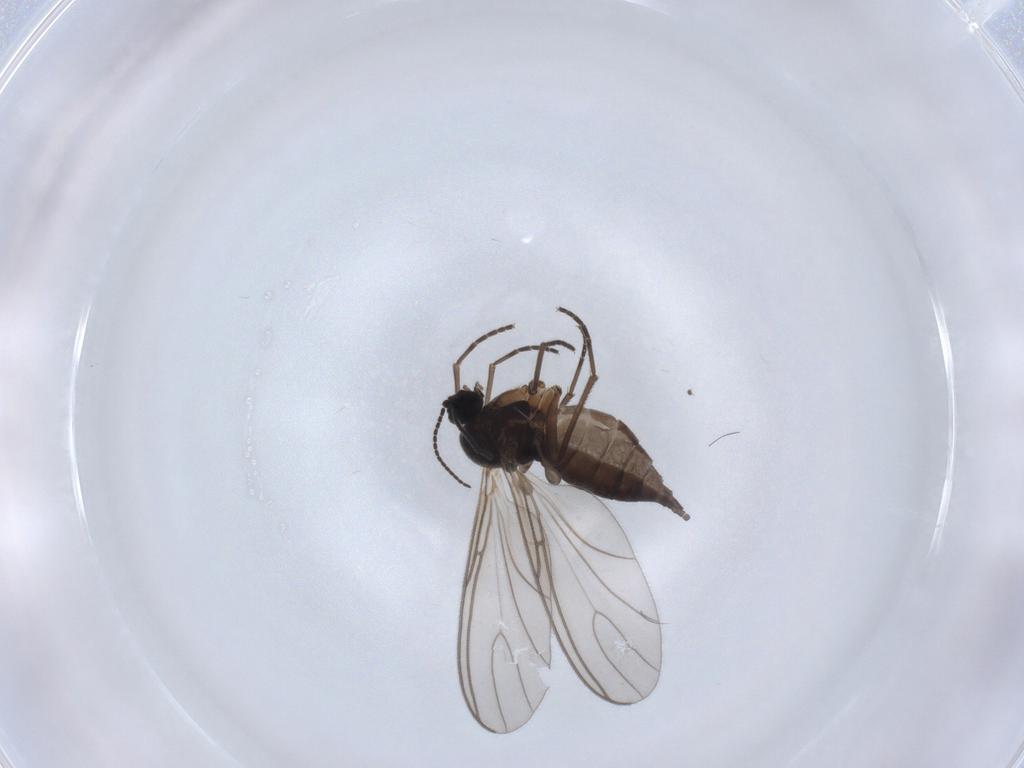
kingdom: Animalia
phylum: Arthropoda
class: Insecta
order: Diptera
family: Sciaridae
